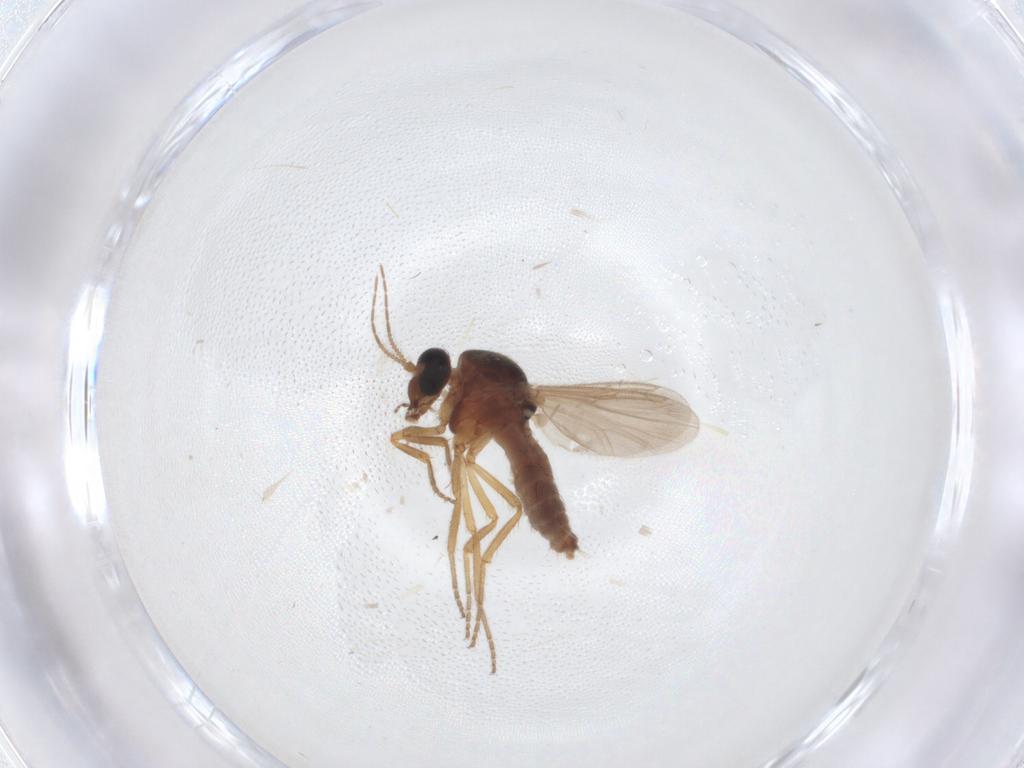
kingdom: Animalia
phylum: Arthropoda
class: Insecta
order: Diptera
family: Ceratopogonidae
